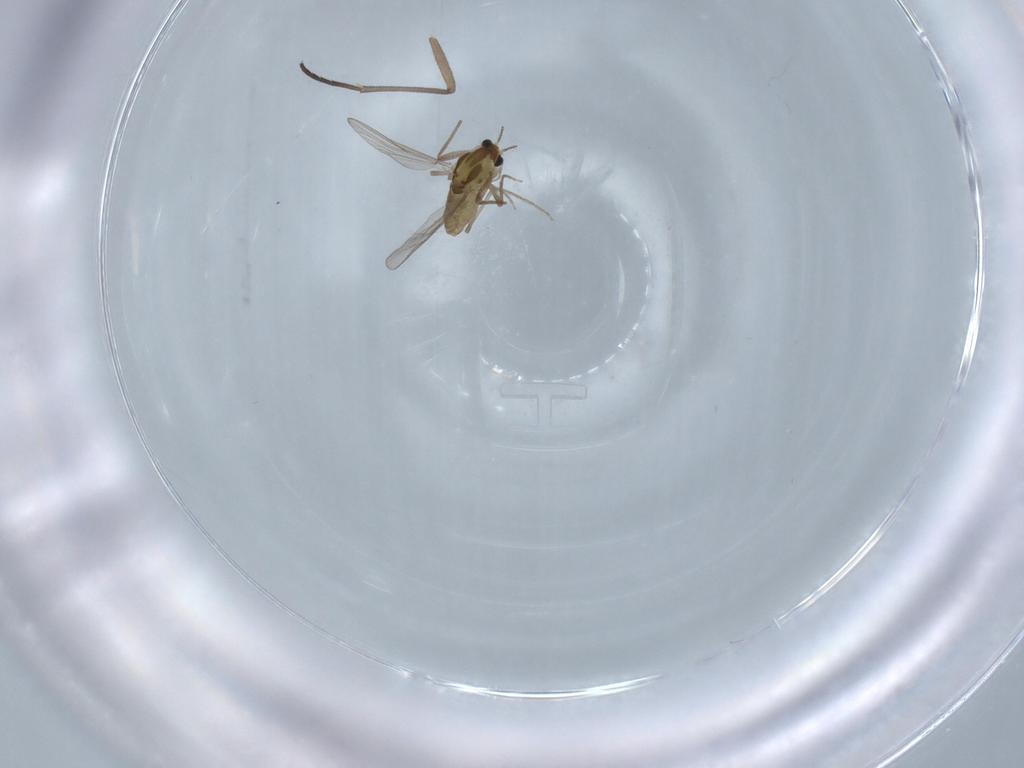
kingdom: Animalia
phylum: Arthropoda
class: Insecta
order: Diptera
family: Sciaridae
